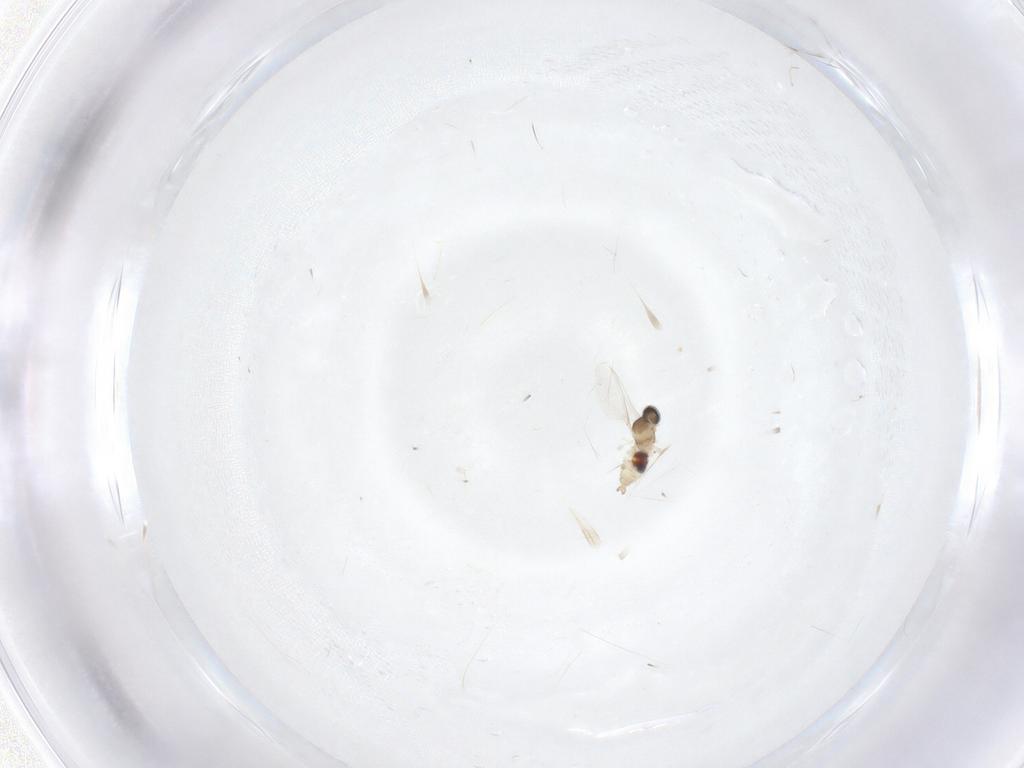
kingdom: Animalia
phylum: Arthropoda
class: Insecta
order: Diptera
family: Cecidomyiidae
